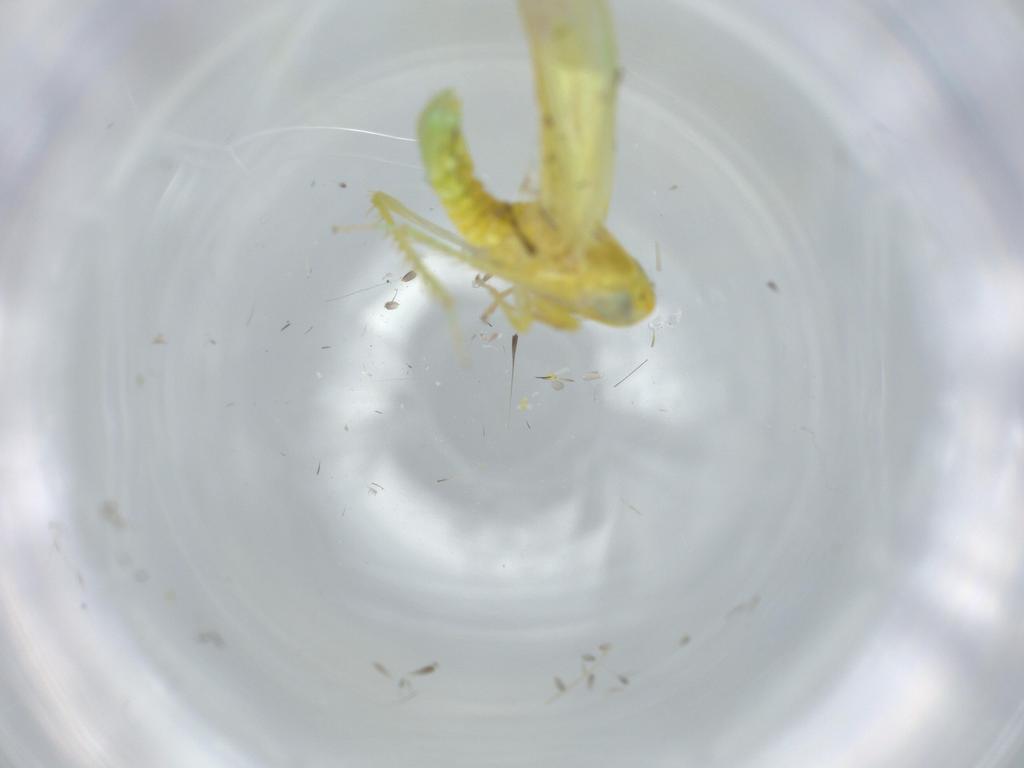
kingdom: Animalia
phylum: Arthropoda
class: Insecta
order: Hemiptera
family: Cicadellidae
